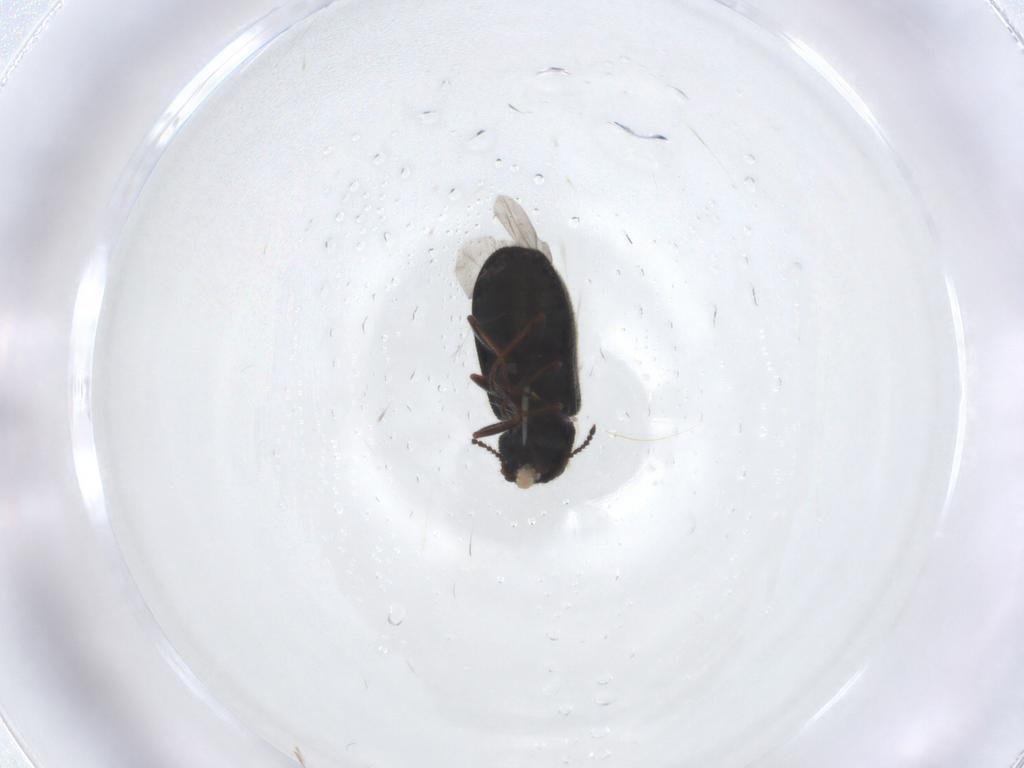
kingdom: Animalia
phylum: Arthropoda
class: Insecta
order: Coleoptera
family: Melyridae
